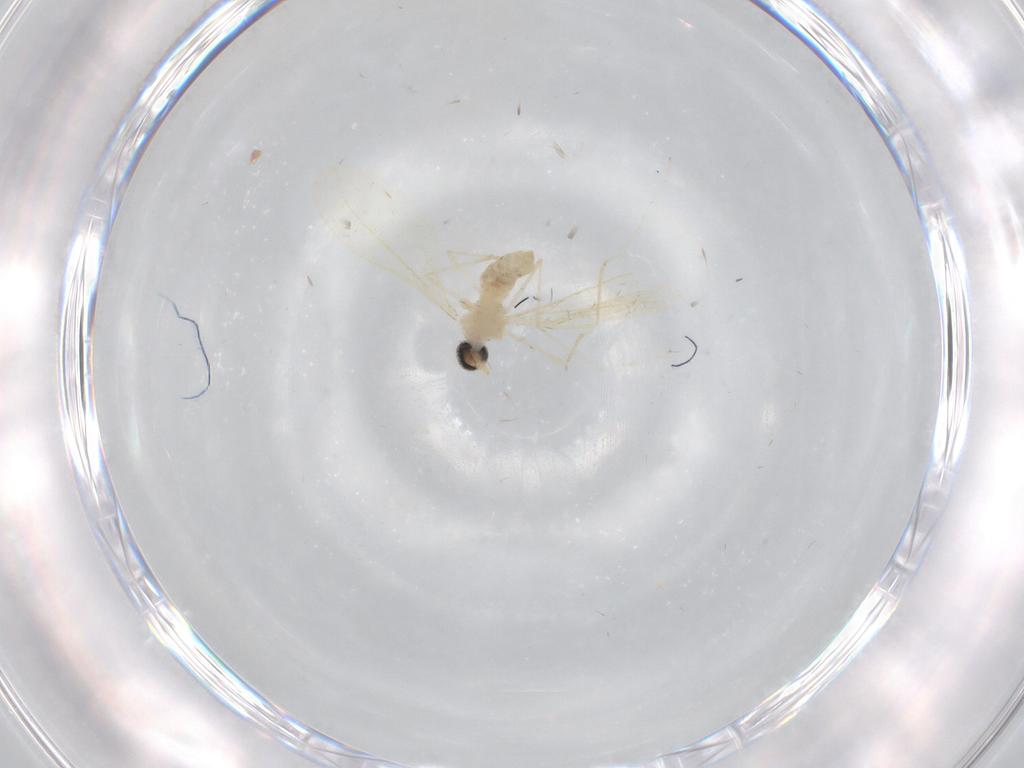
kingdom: Animalia
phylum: Arthropoda
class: Insecta
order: Diptera
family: Cecidomyiidae
